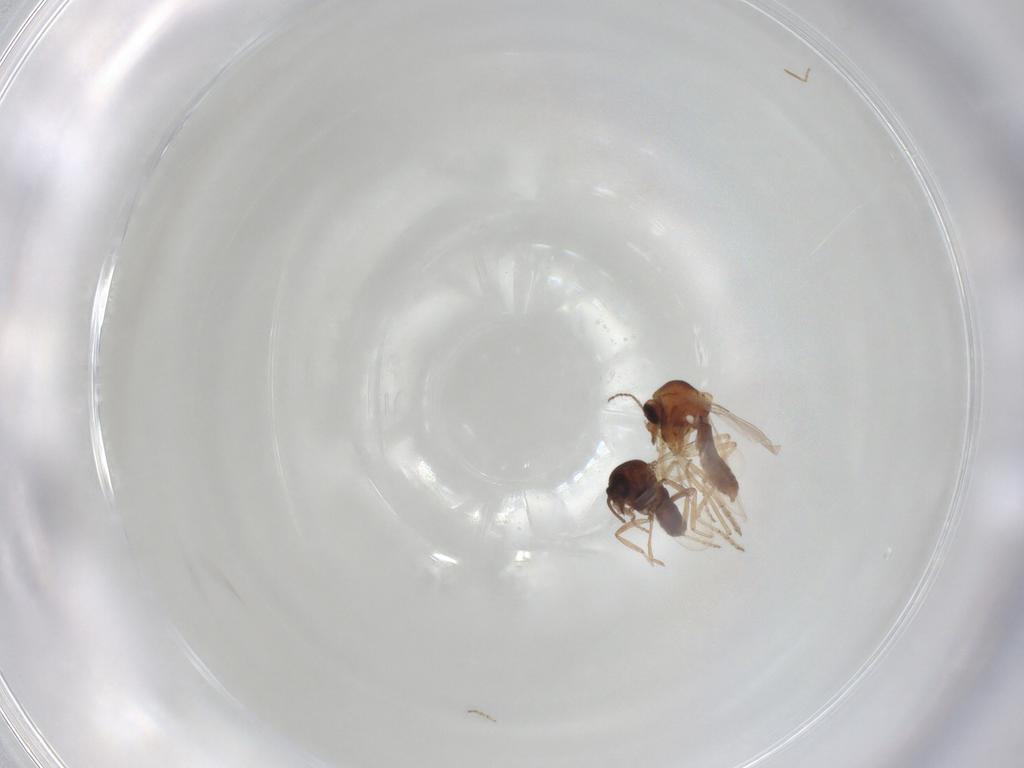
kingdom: Animalia
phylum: Arthropoda
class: Insecta
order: Diptera
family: Ceratopogonidae
